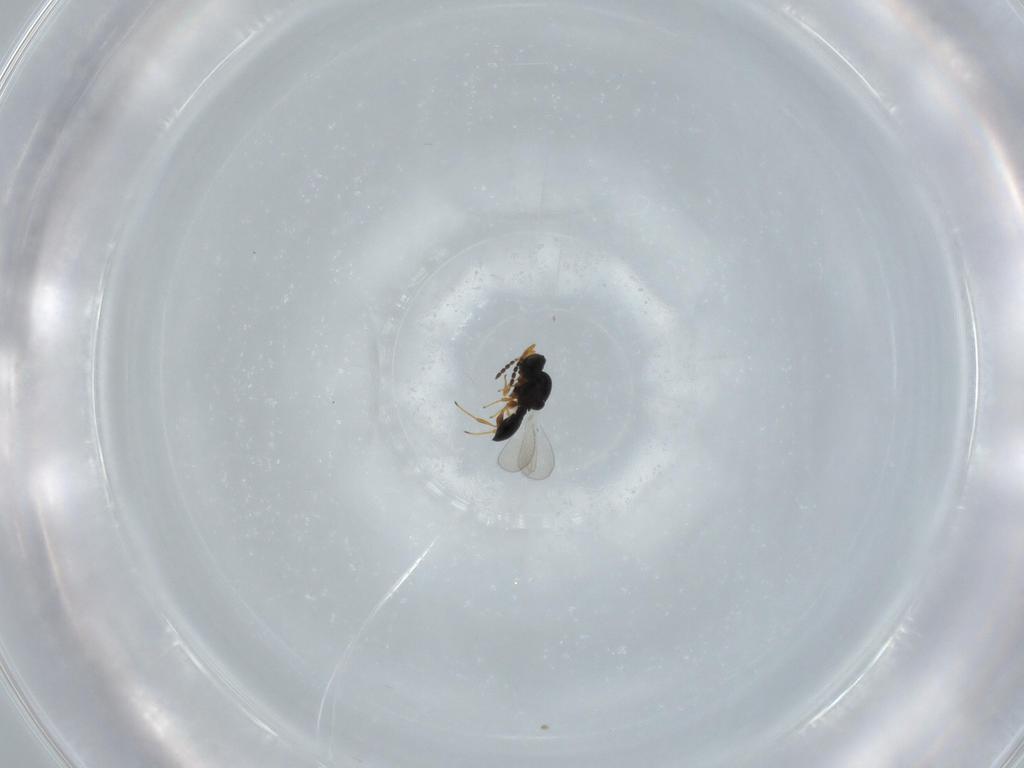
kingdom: Animalia
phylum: Arthropoda
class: Insecta
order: Hymenoptera
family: Platygastridae
